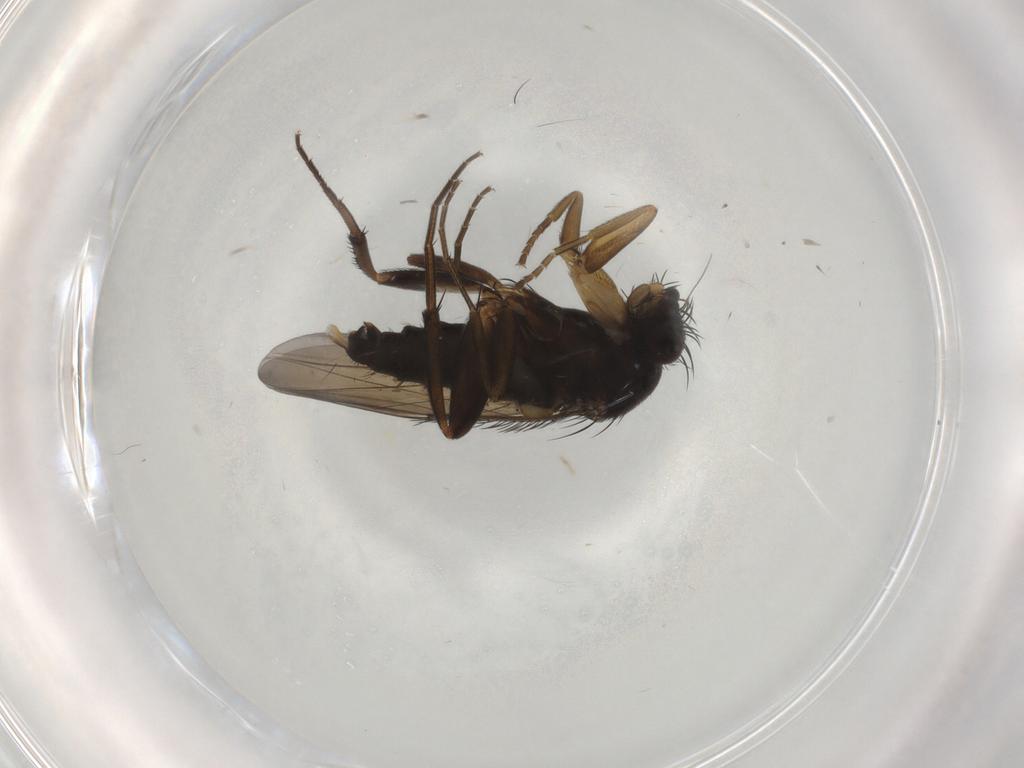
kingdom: Animalia
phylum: Arthropoda
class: Insecta
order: Diptera
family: Phoridae
